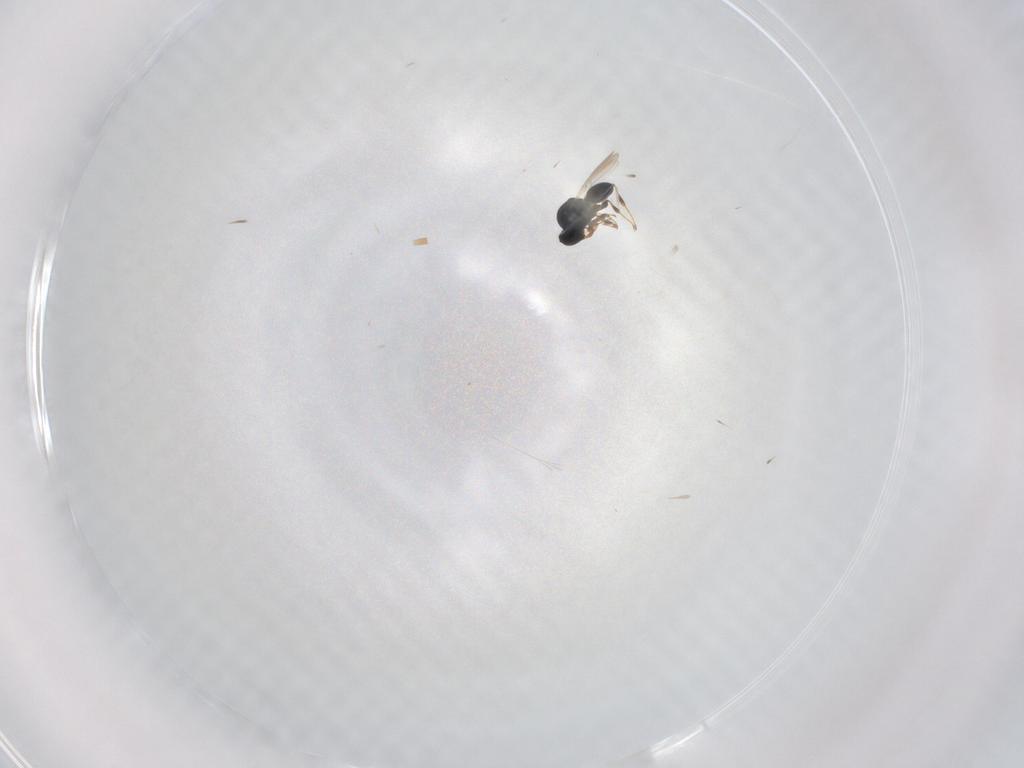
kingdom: Animalia
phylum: Arthropoda
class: Insecta
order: Hymenoptera
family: Platygastridae
